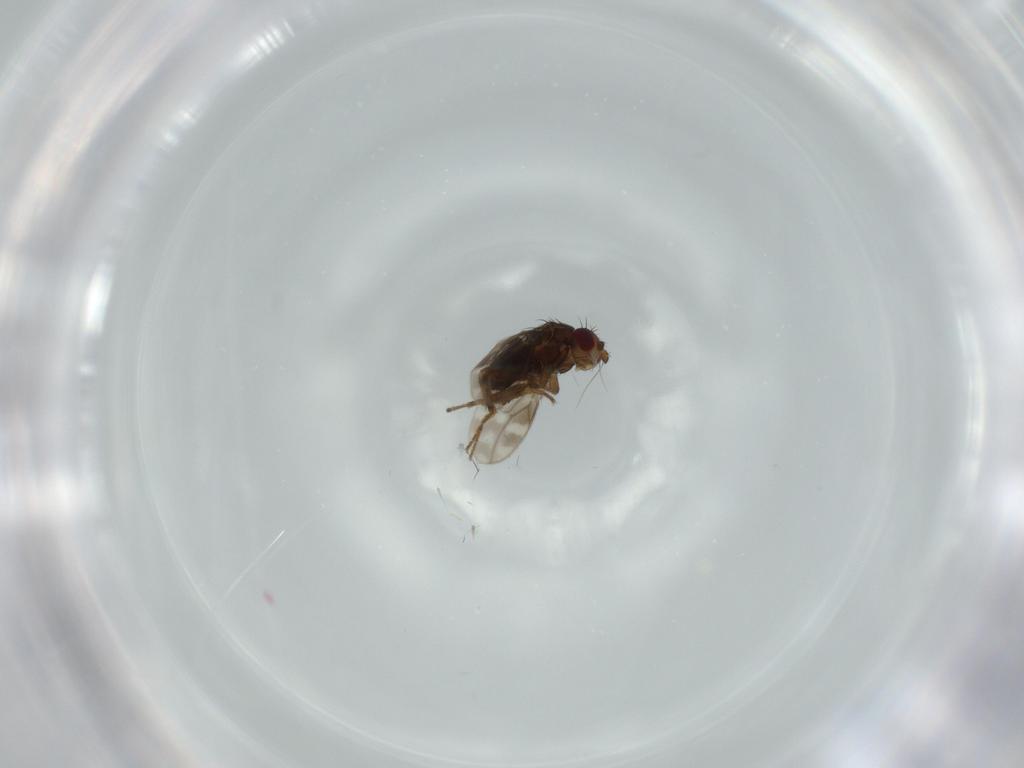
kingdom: Animalia
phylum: Arthropoda
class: Insecta
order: Diptera
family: Sphaeroceridae
